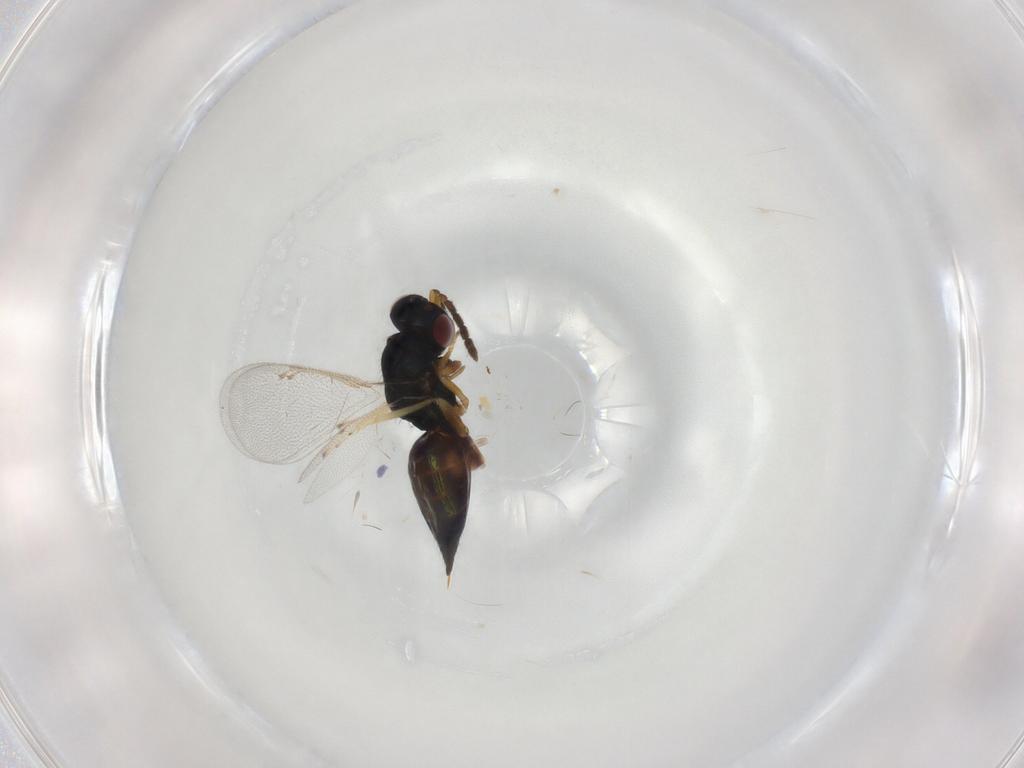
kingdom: Animalia
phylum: Arthropoda
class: Insecta
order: Hymenoptera
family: Eulophidae
